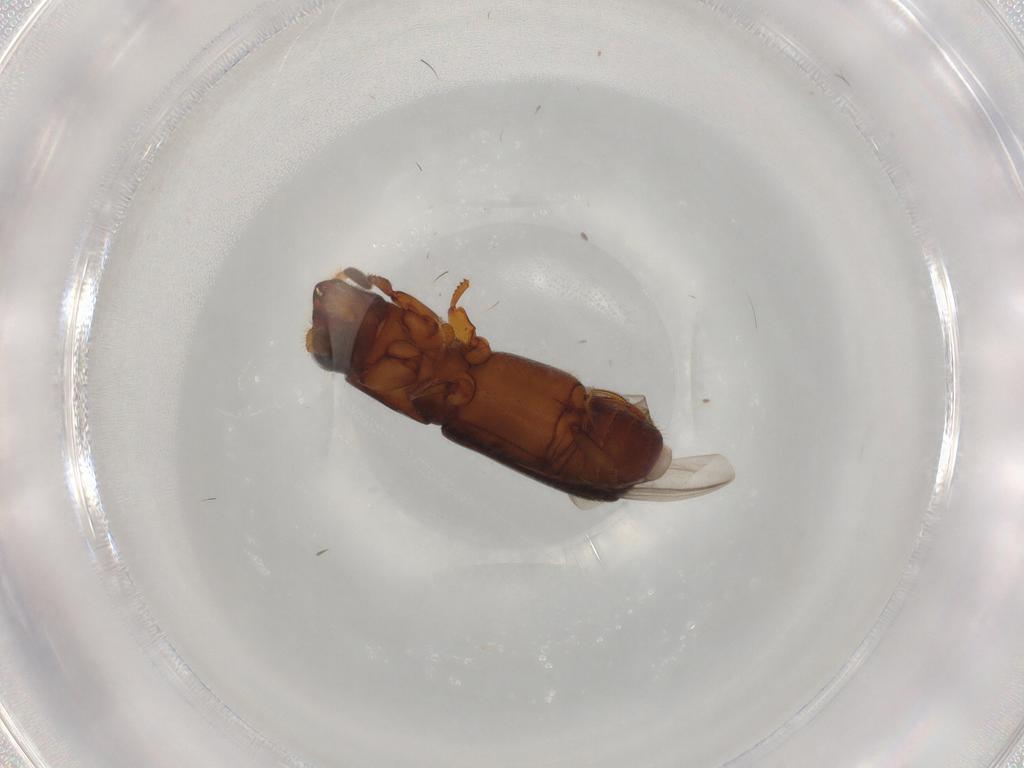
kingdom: Animalia
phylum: Arthropoda
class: Insecta
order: Coleoptera
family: Curculionidae
